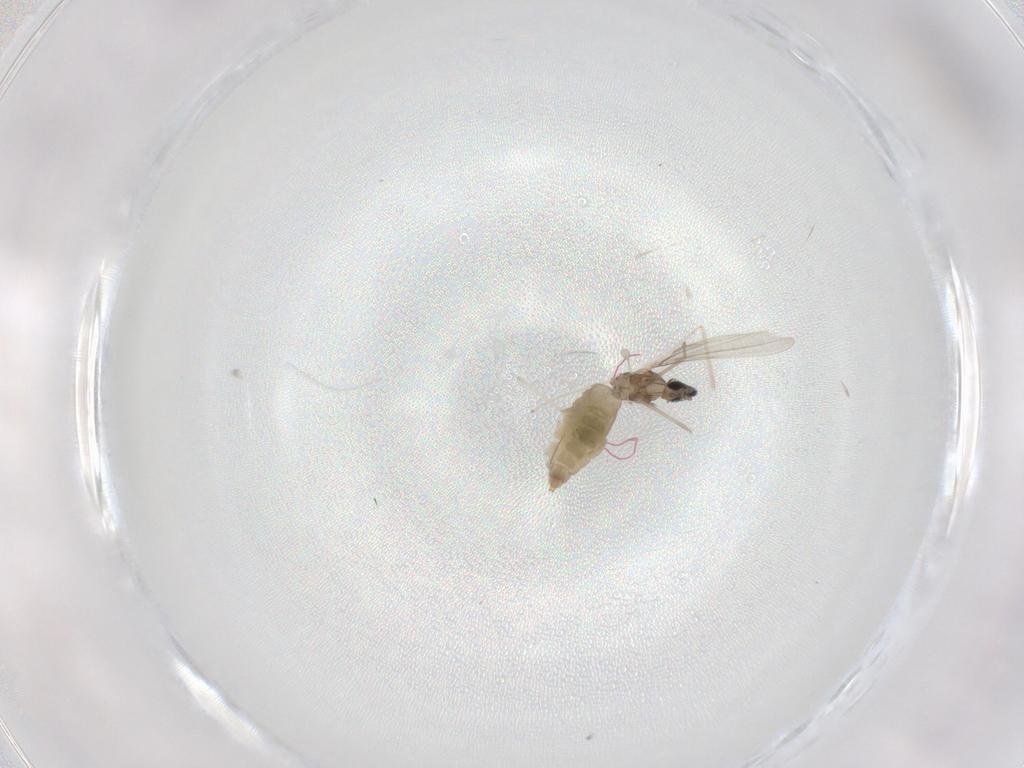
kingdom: Animalia
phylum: Arthropoda
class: Insecta
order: Diptera
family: Cecidomyiidae
